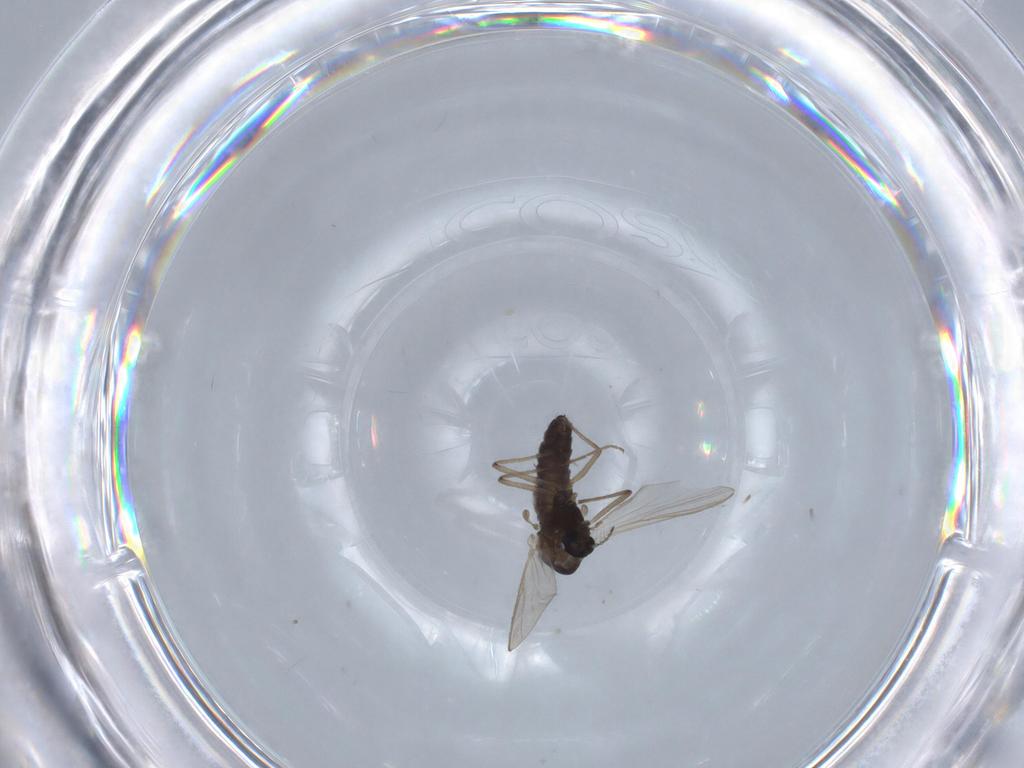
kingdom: Animalia
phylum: Arthropoda
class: Insecta
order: Diptera
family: Chironomidae
